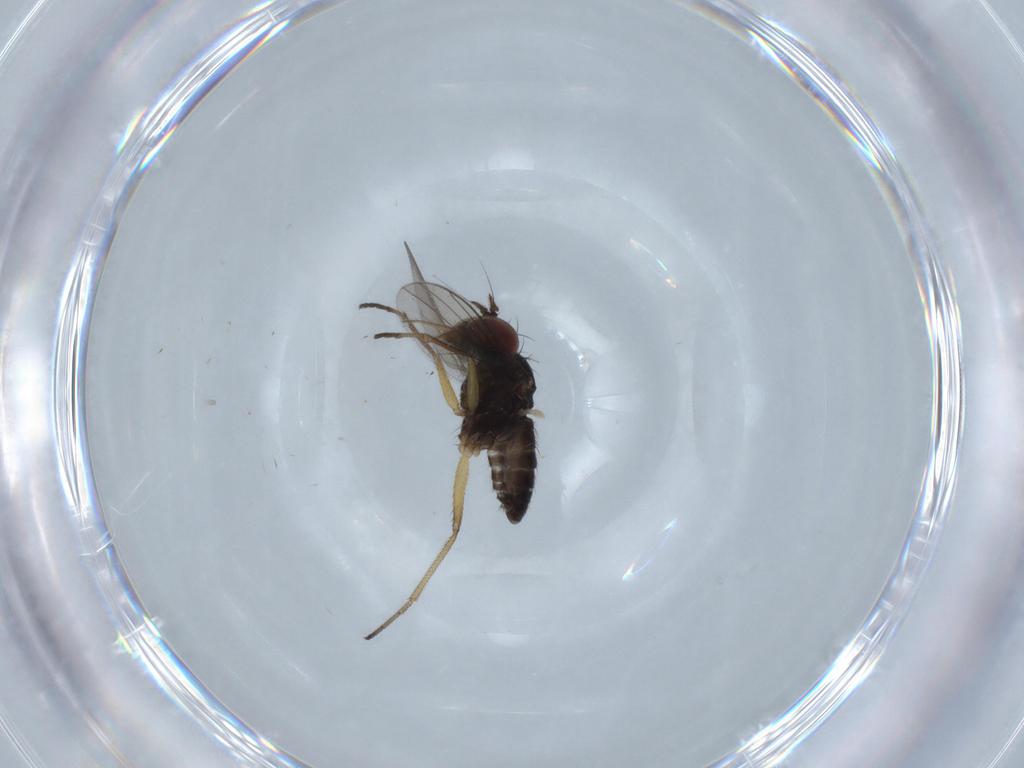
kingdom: Animalia
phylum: Arthropoda
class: Insecta
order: Diptera
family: Dolichopodidae
